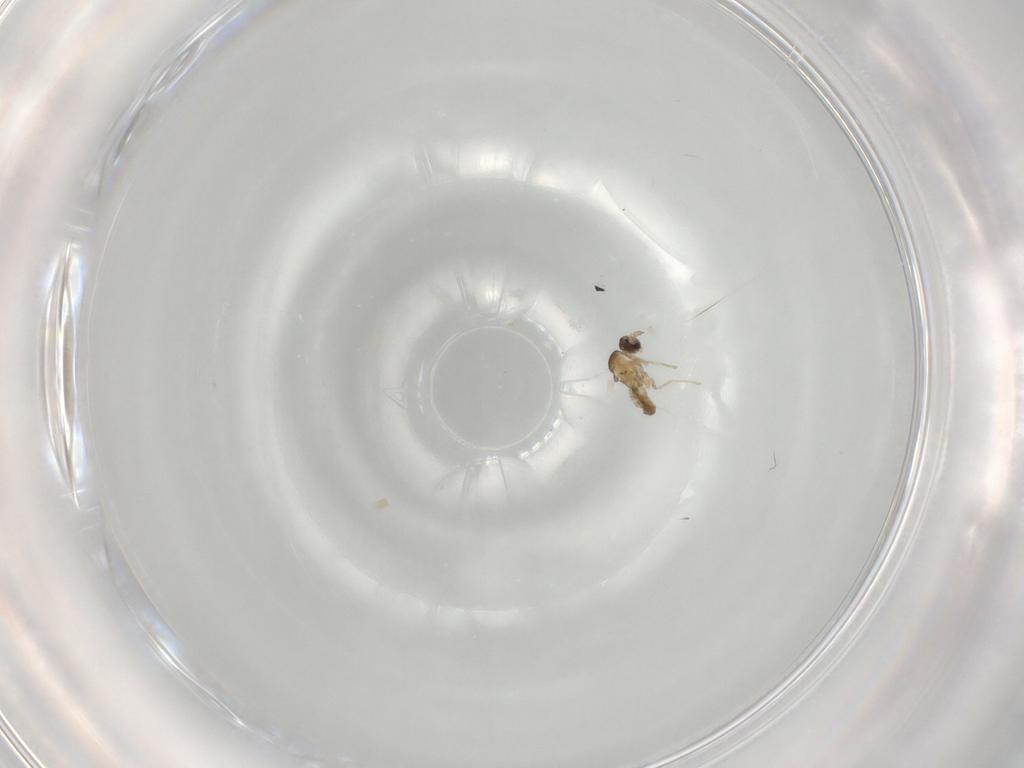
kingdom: Animalia
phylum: Arthropoda
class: Insecta
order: Diptera
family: Cecidomyiidae
